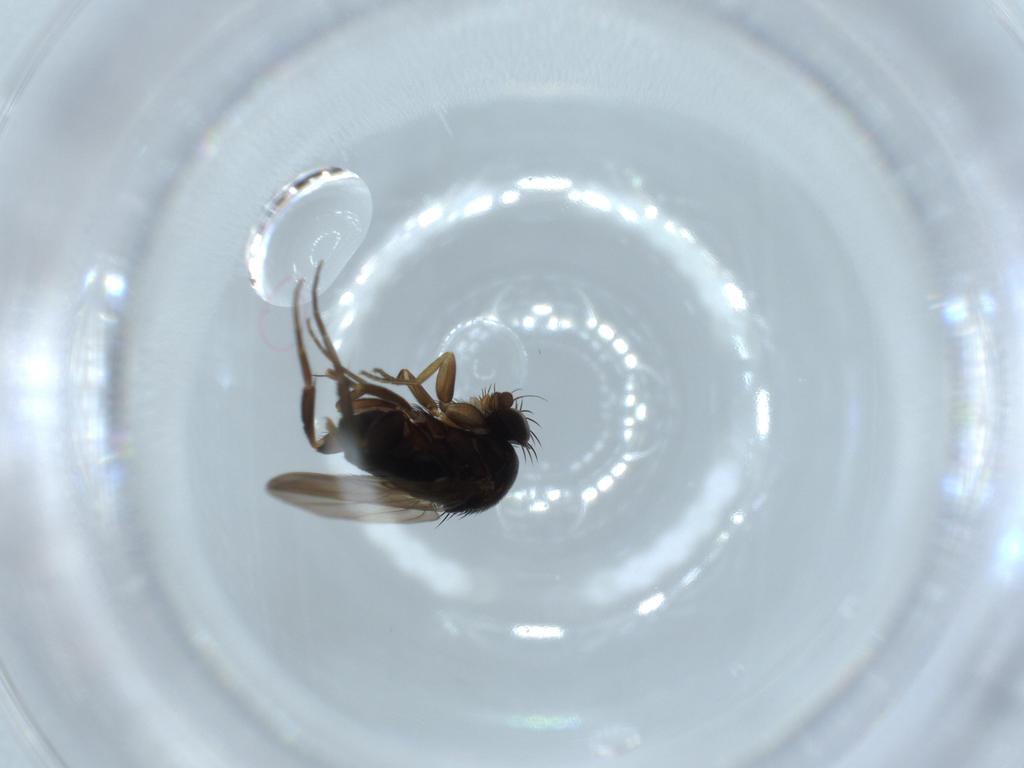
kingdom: Animalia
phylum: Arthropoda
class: Insecta
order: Diptera
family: Phoridae
